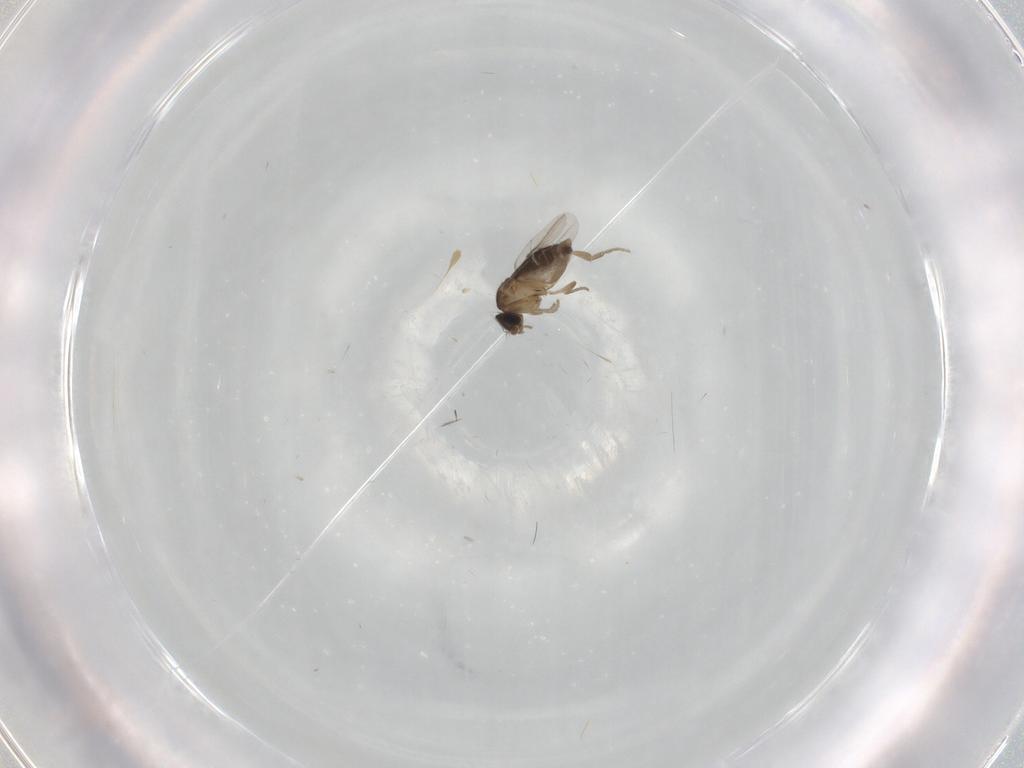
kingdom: Animalia
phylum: Arthropoda
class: Insecta
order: Diptera
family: Phoridae
